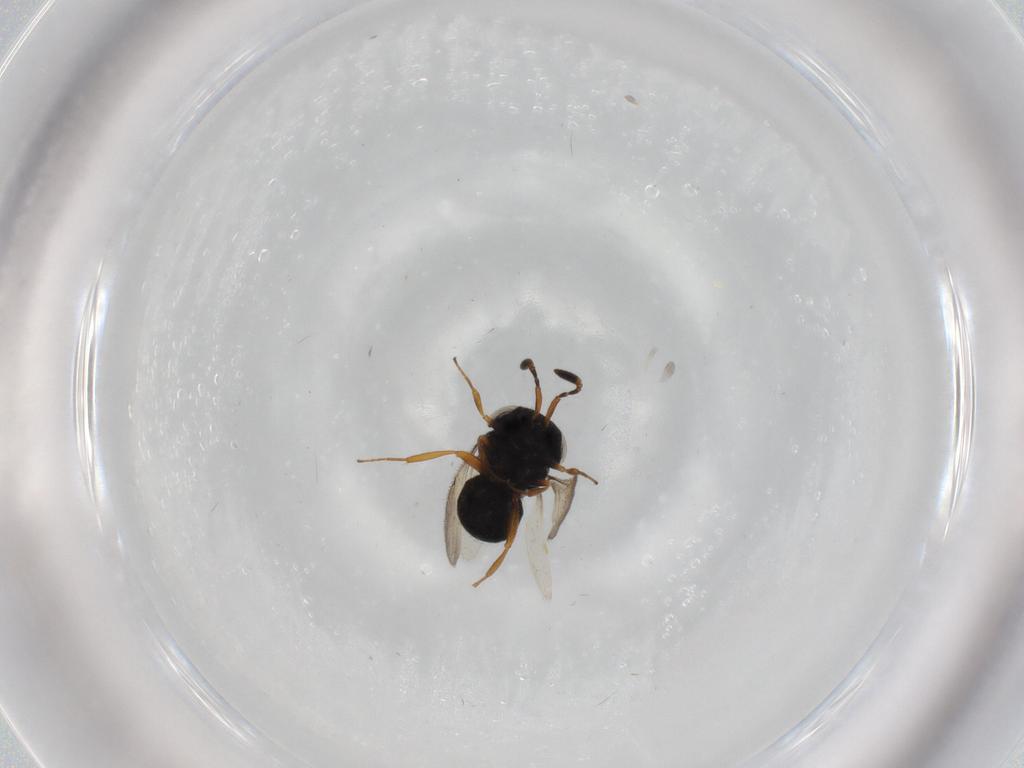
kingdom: Animalia
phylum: Arthropoda
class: Insecta
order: Hymenoptera
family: Scelionidae
